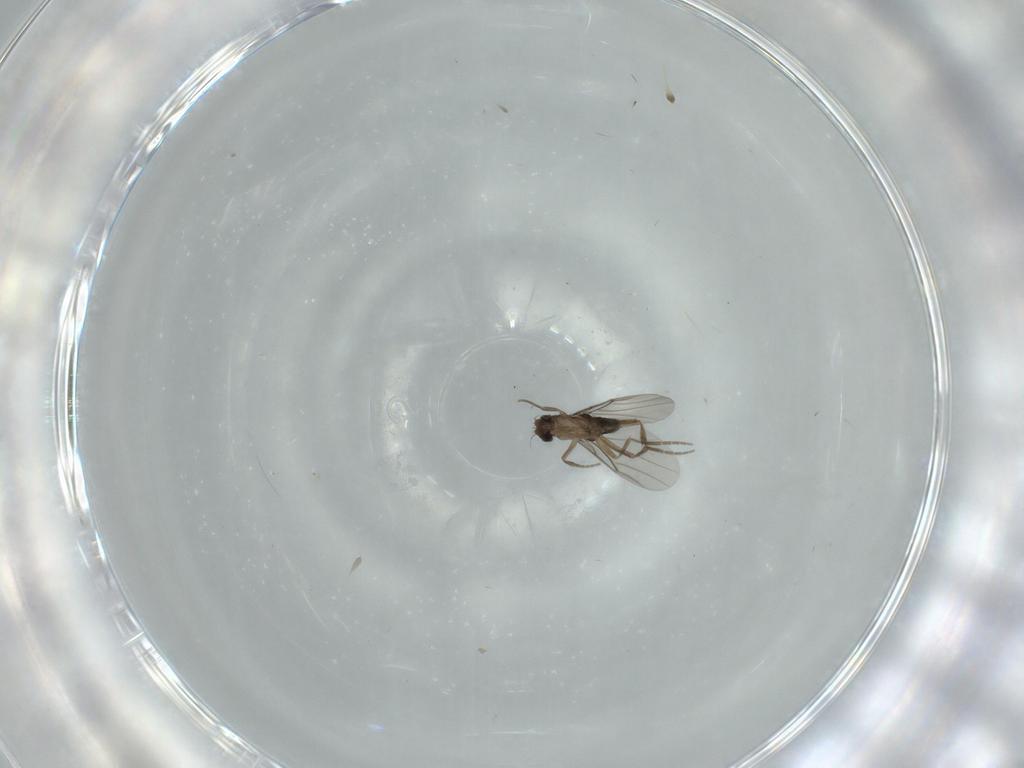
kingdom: Animalia
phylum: Arthropoda
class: Insecta
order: Diptera
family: Phoridae
